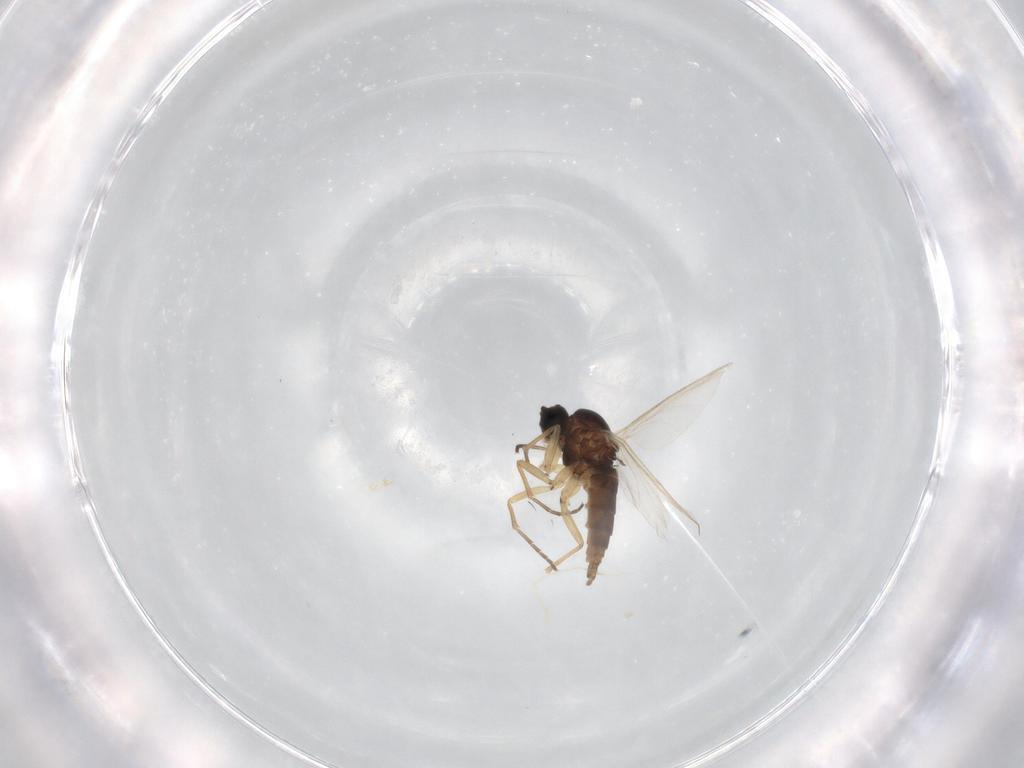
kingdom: Animalia
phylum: Arthropoda
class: Insecta
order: Diptera
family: Sciaridae
